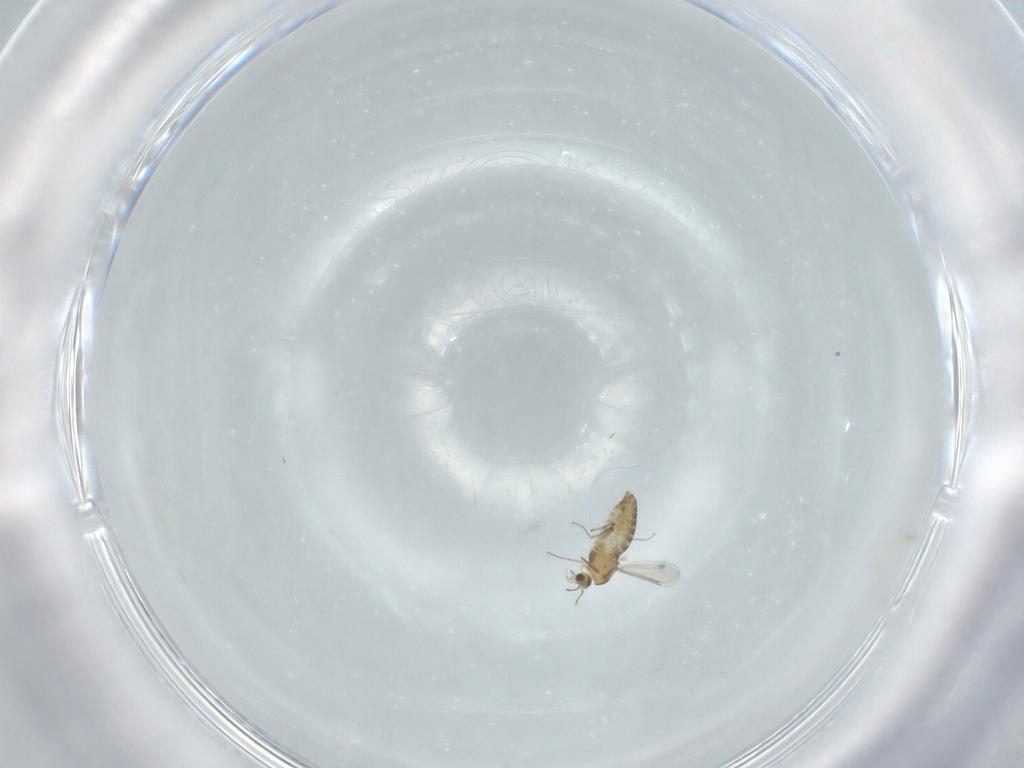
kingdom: Animalia
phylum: Arthropoda
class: Insecta
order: Diptera
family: Chironomidae
